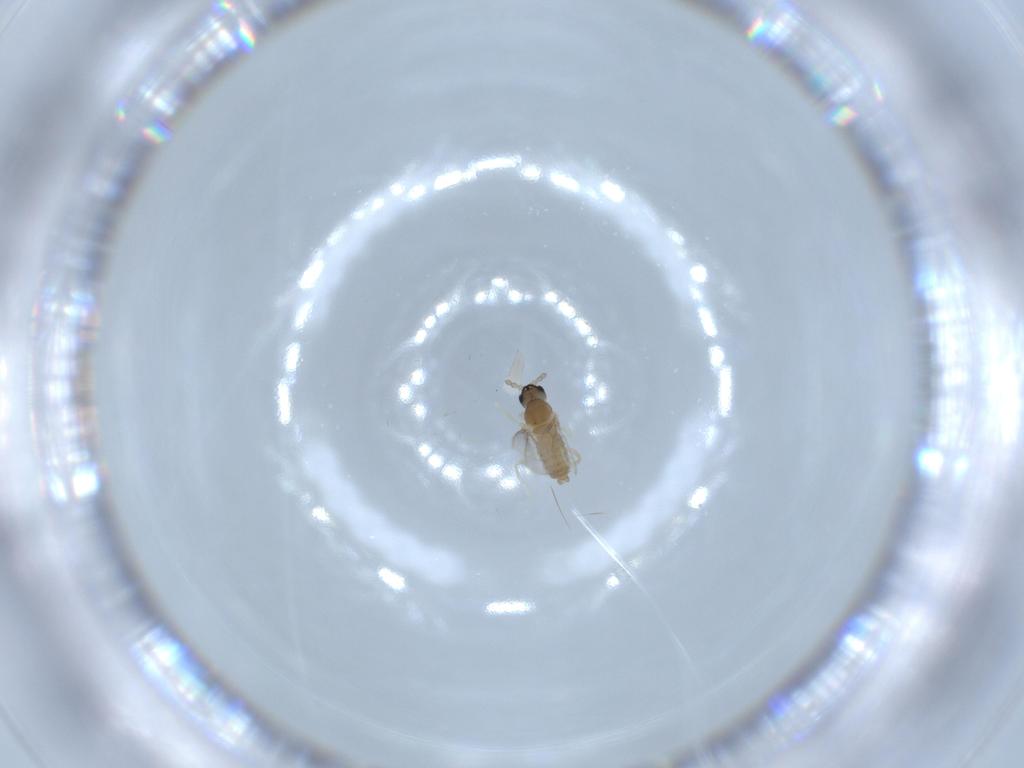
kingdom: Animalia
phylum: Arthropoda
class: Insecta
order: Diptera
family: Cecidomyiidae
